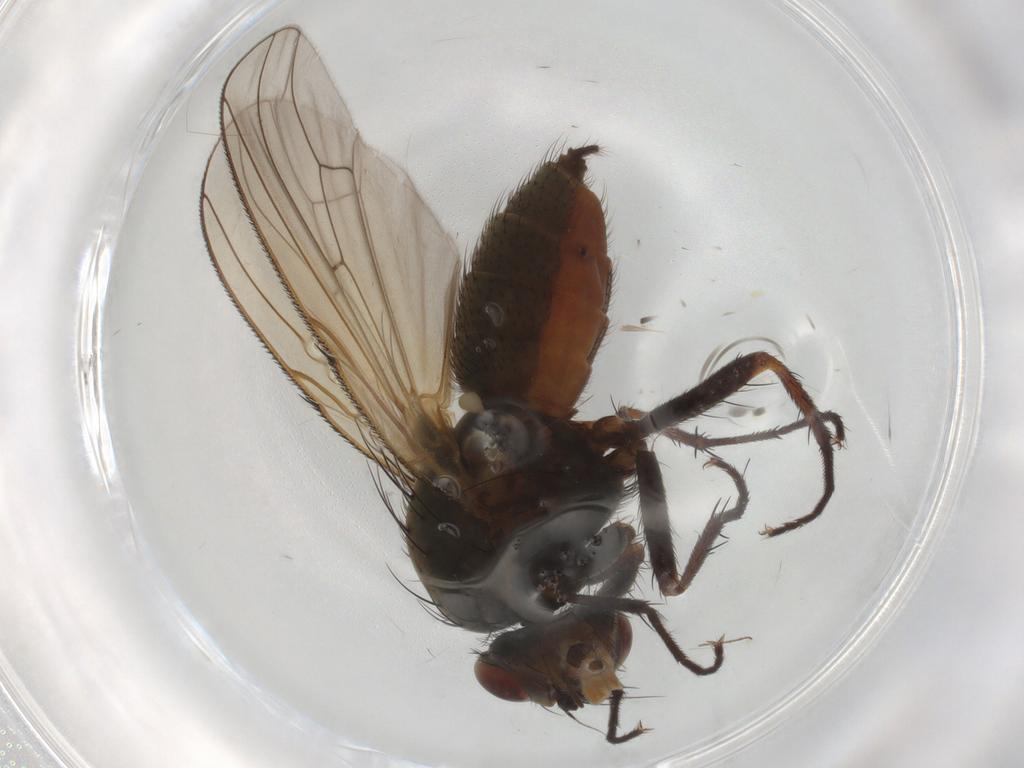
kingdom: Animalia
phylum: Arthropoda
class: Insecta
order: Diptera
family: Anthomyiidae
